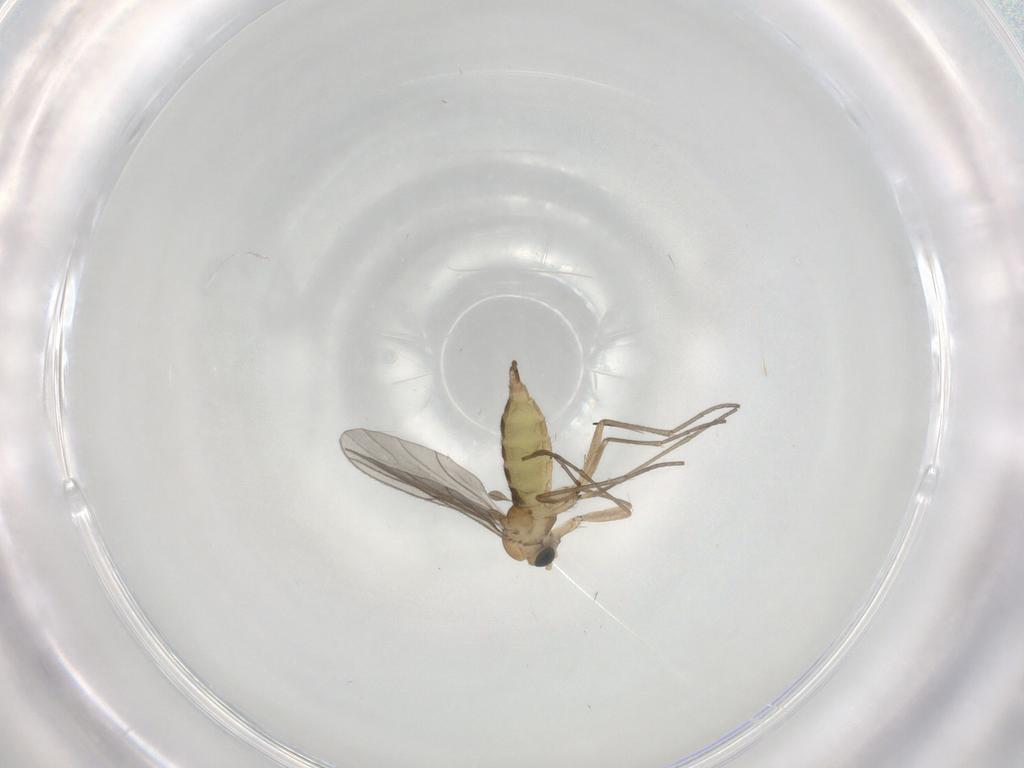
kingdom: Animalia
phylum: Arthropoda
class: Insecta
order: Diptera
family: Sciaridae
